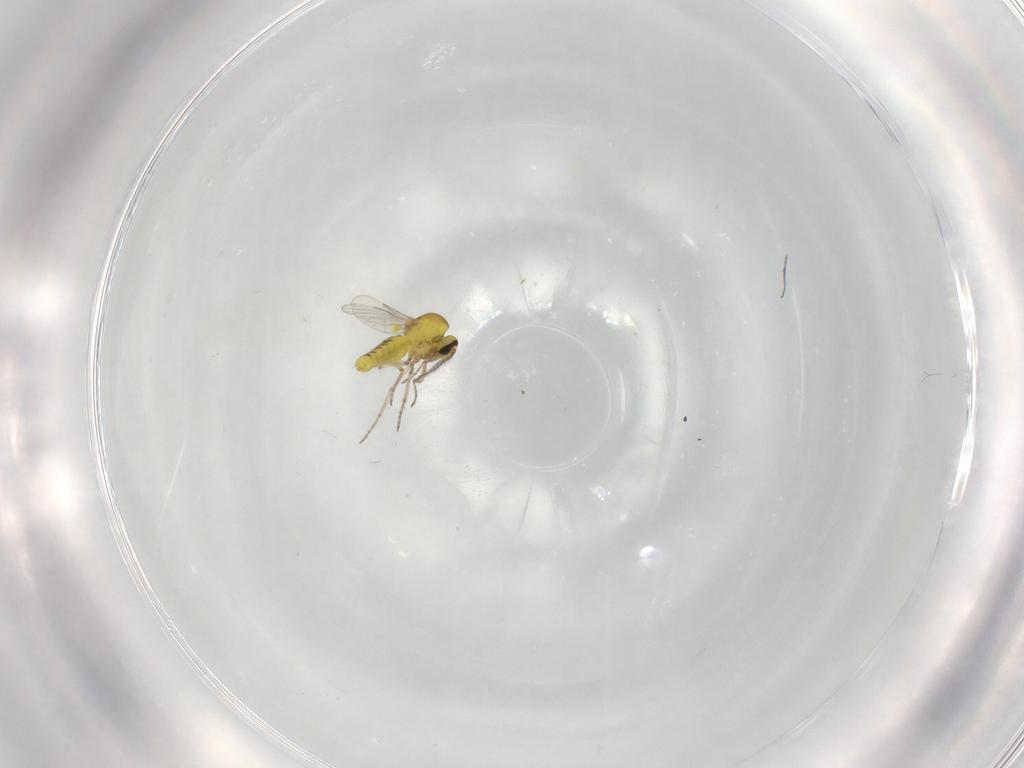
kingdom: Animalia
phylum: Arthropoda
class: Insecta
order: Diptera
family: Ceratopogonidae
